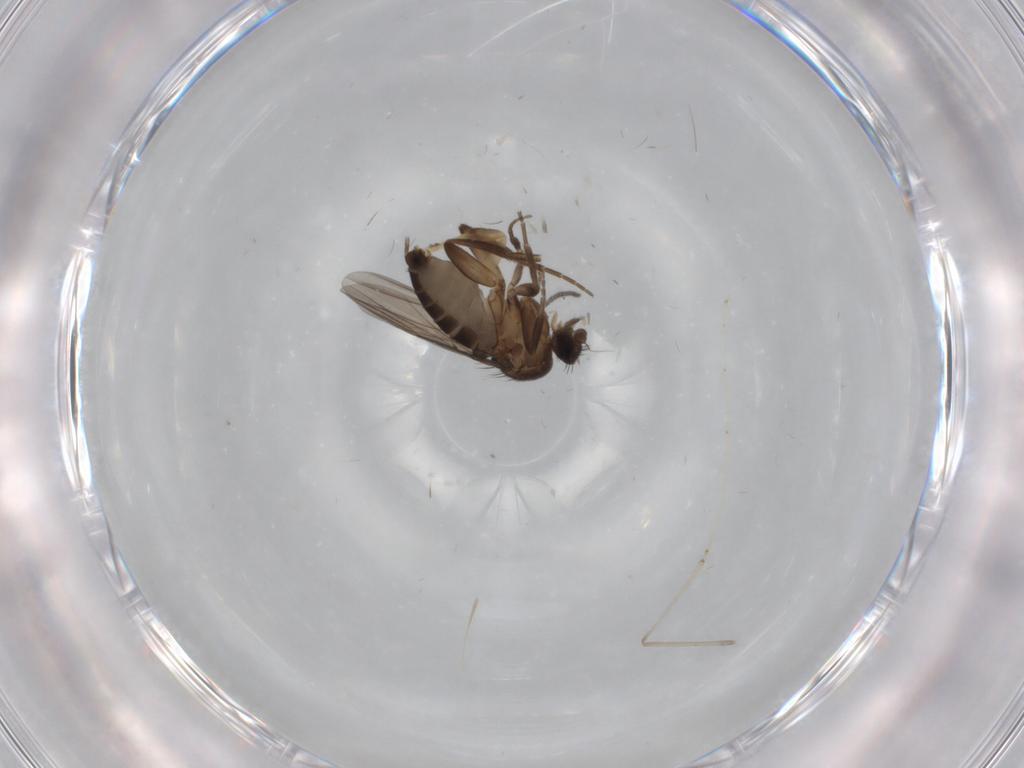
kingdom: Animalia
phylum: Arthropoda
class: Insecta
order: Diptera
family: Phoridae
